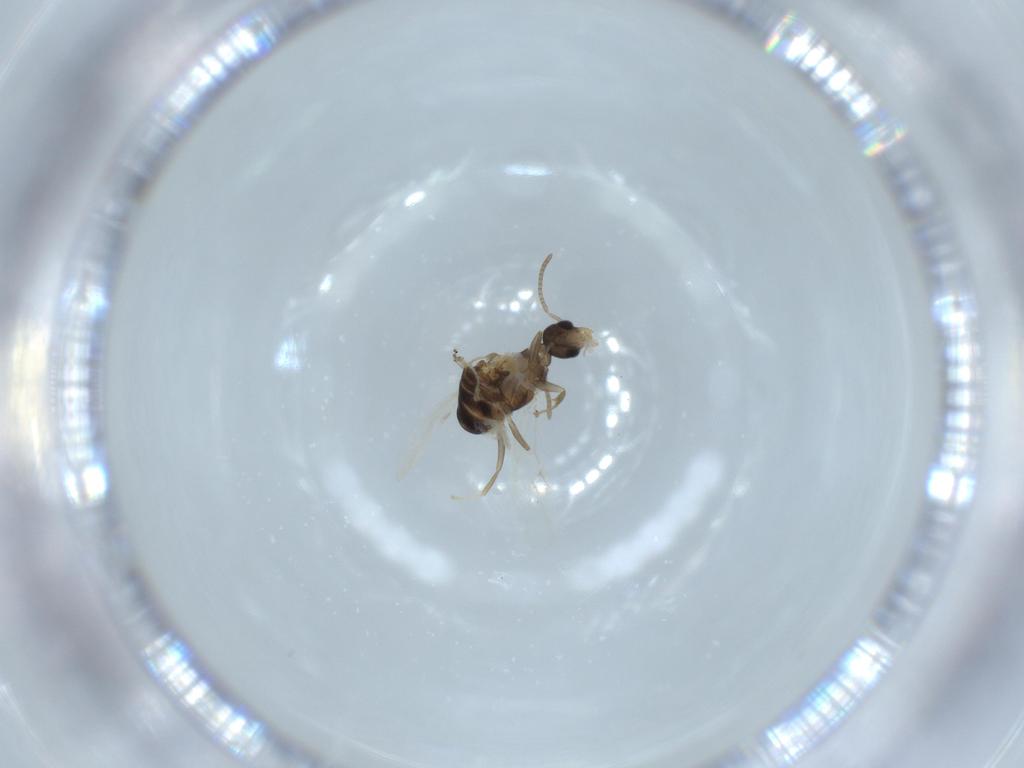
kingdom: Animalia
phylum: Arthropoda
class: Insecta
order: Hymenoptera
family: Formicidae
